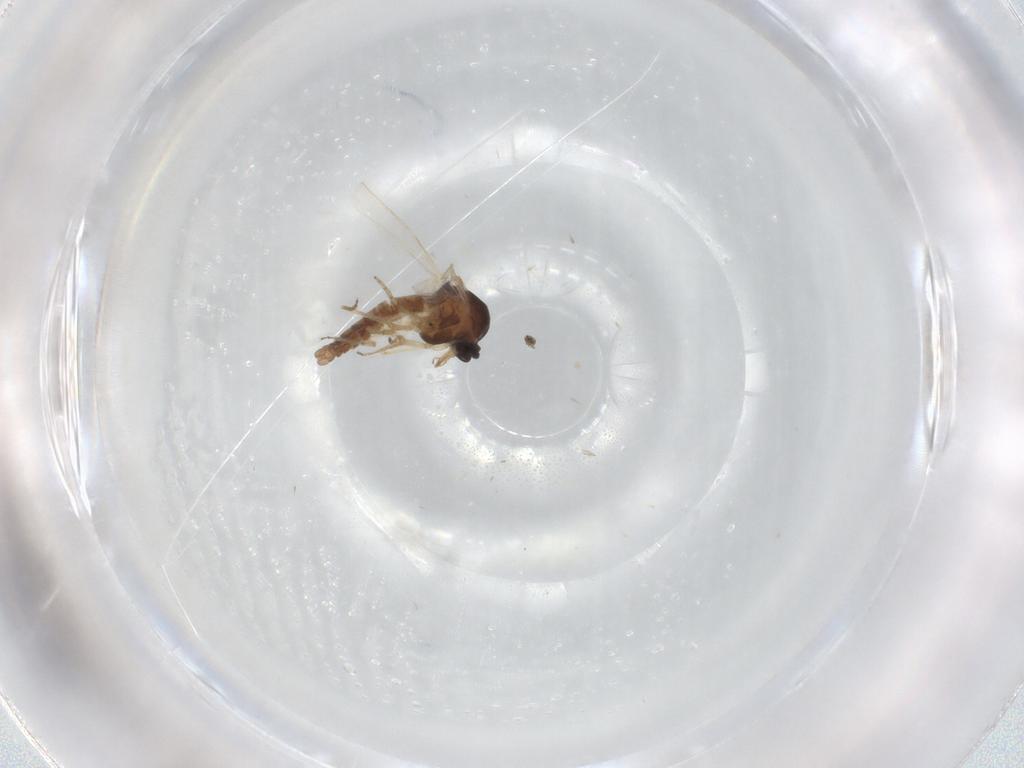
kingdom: Animalia
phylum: Arthropoda
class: Insecta
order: Diptera
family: Ceratopogonidae
